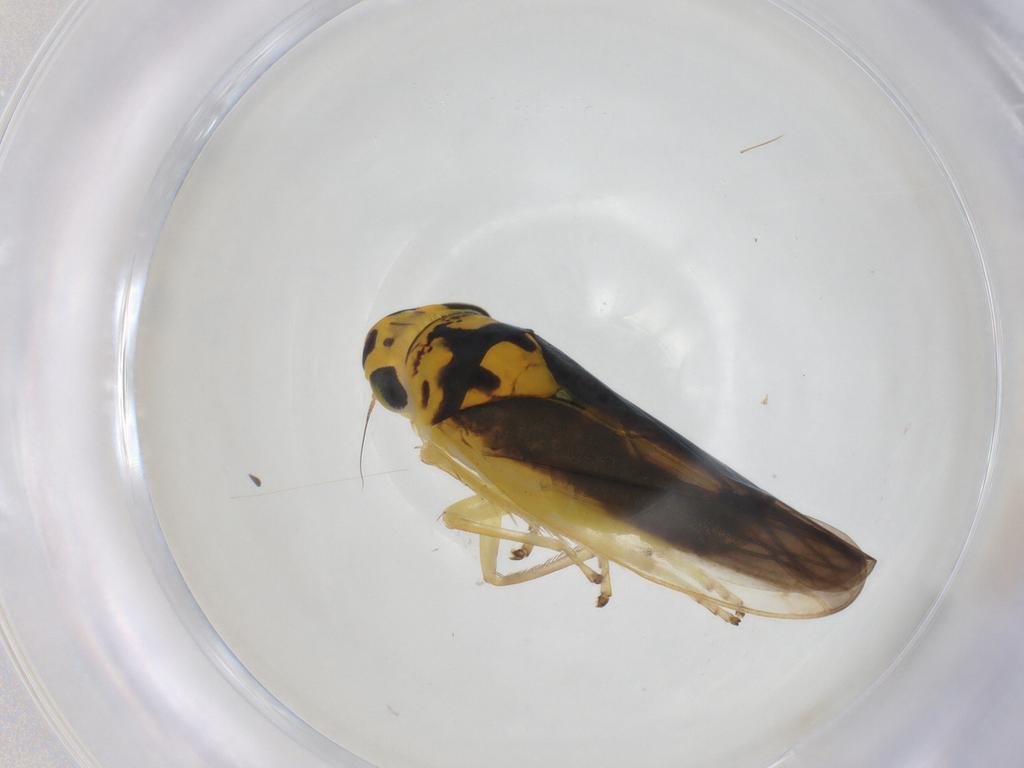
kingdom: Animalia
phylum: Arthropoda
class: Insecta
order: Hemiptera
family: Cicadellidae
